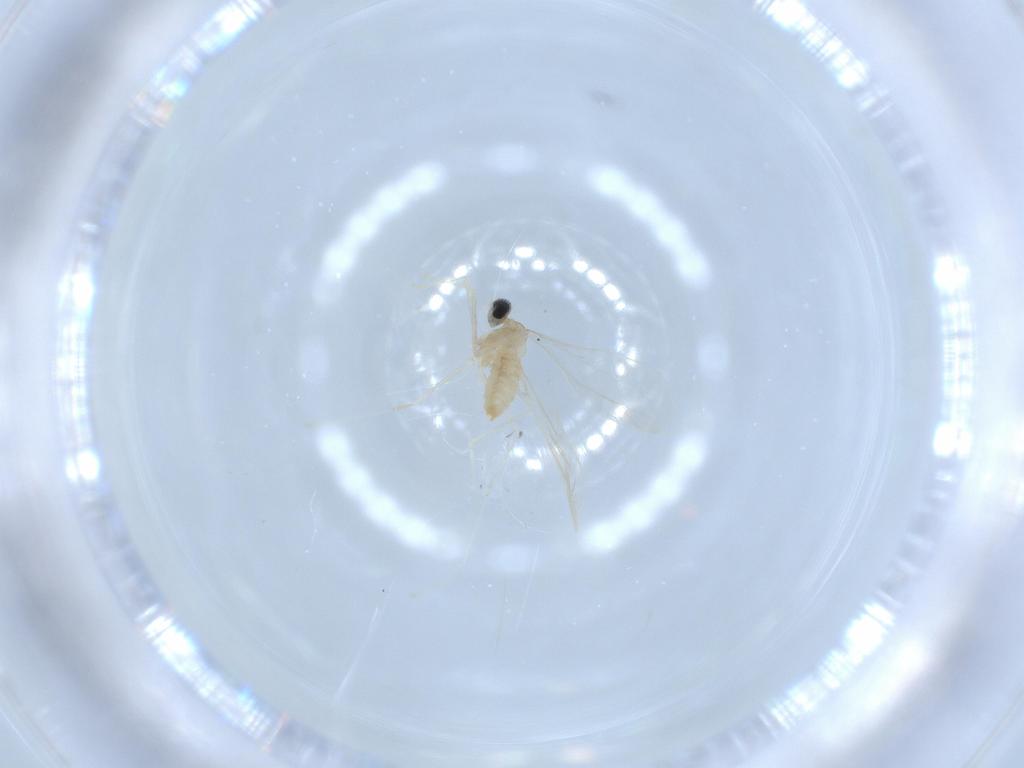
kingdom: Animalia
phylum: Arthropoda
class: Insecta
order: Diptera
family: Cecidomyiidae
